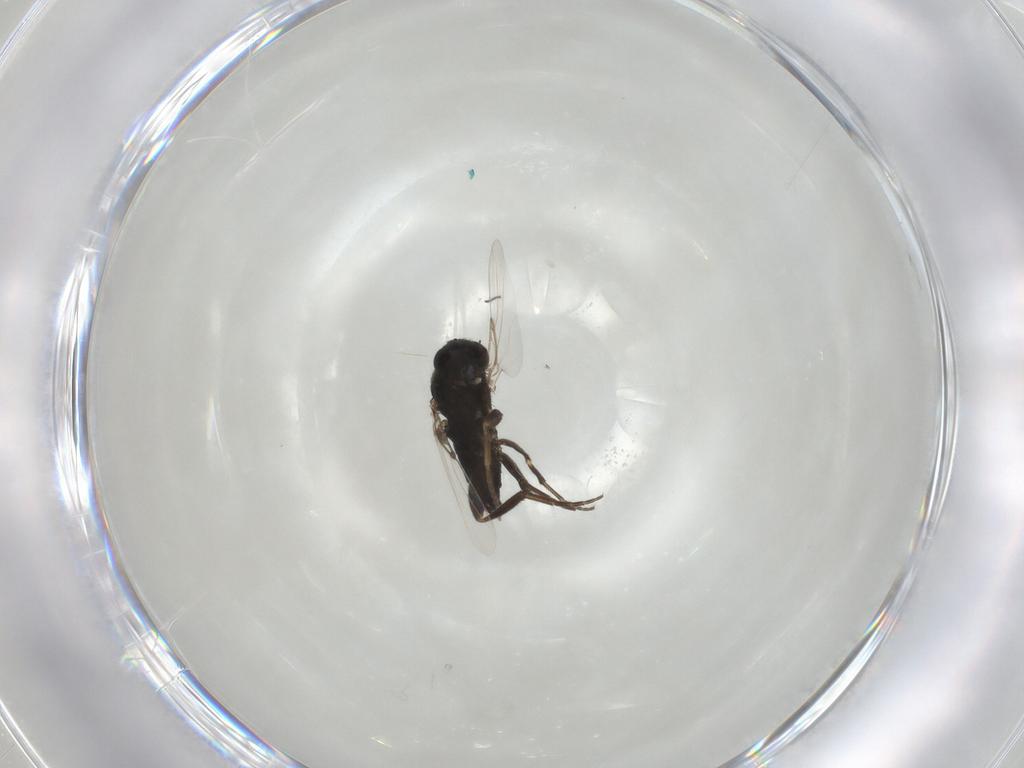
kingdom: Animalia
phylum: Arthropoda
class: Insecta
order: Diptera
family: Phoridae
